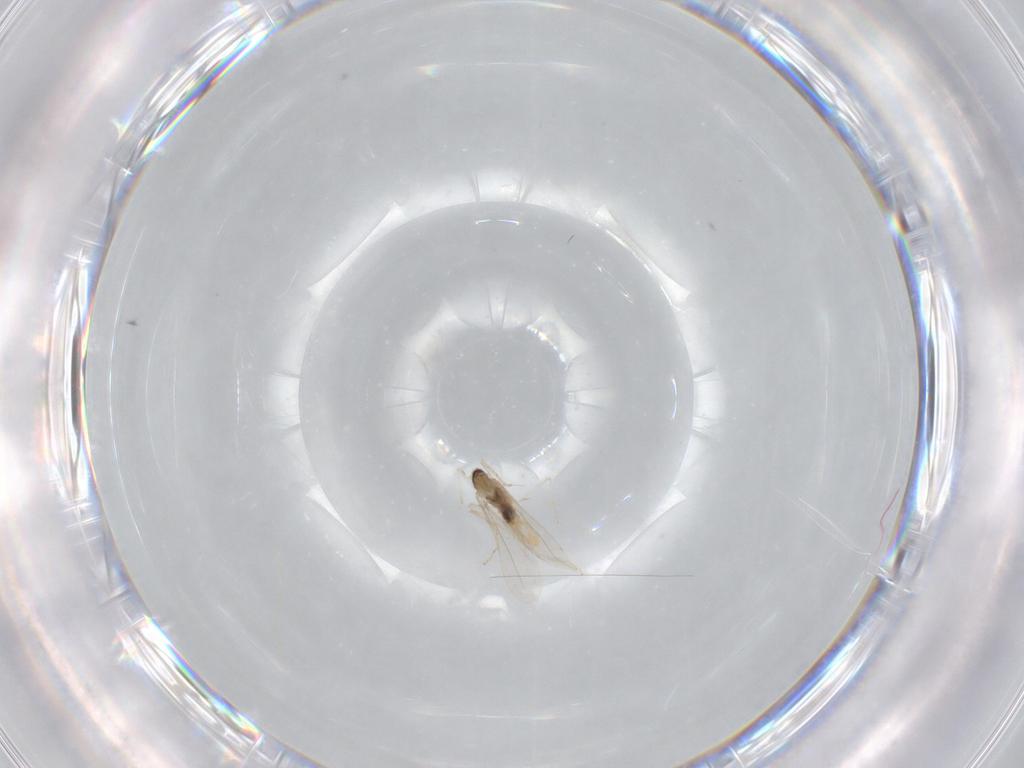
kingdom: Animalia
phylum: Arthropoda
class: Insecta
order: Diptera
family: Cecidomyiidae
